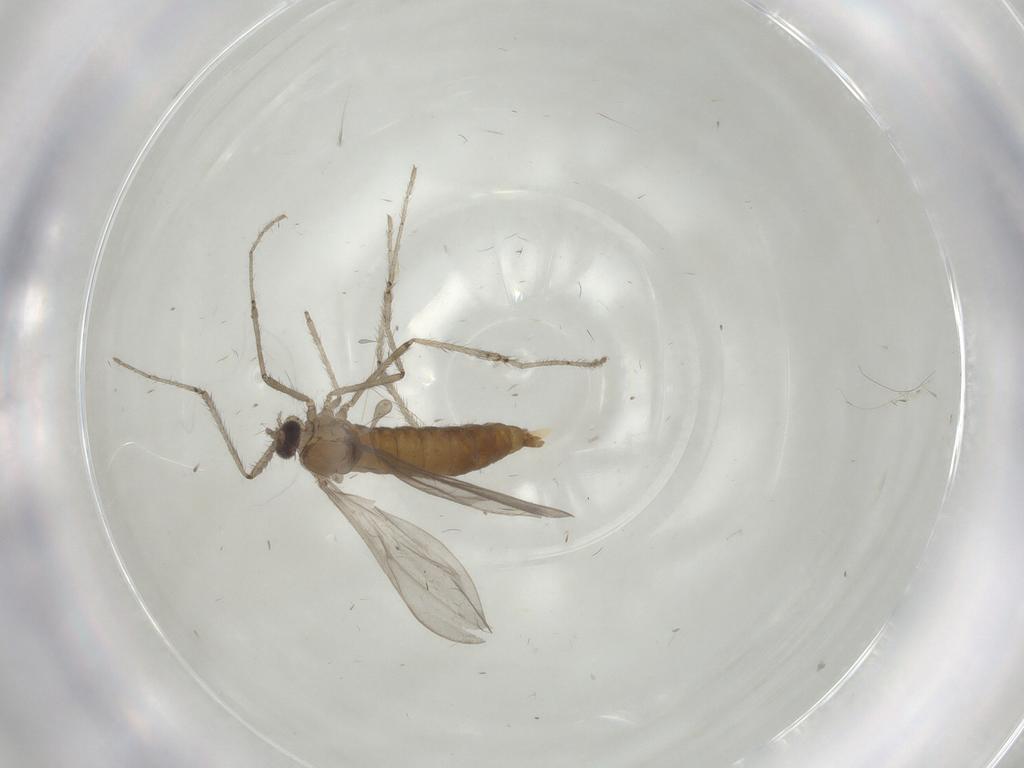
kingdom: Animalia
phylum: Arthropoda
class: Insecta
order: Diptera
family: Cecidomyiidae
